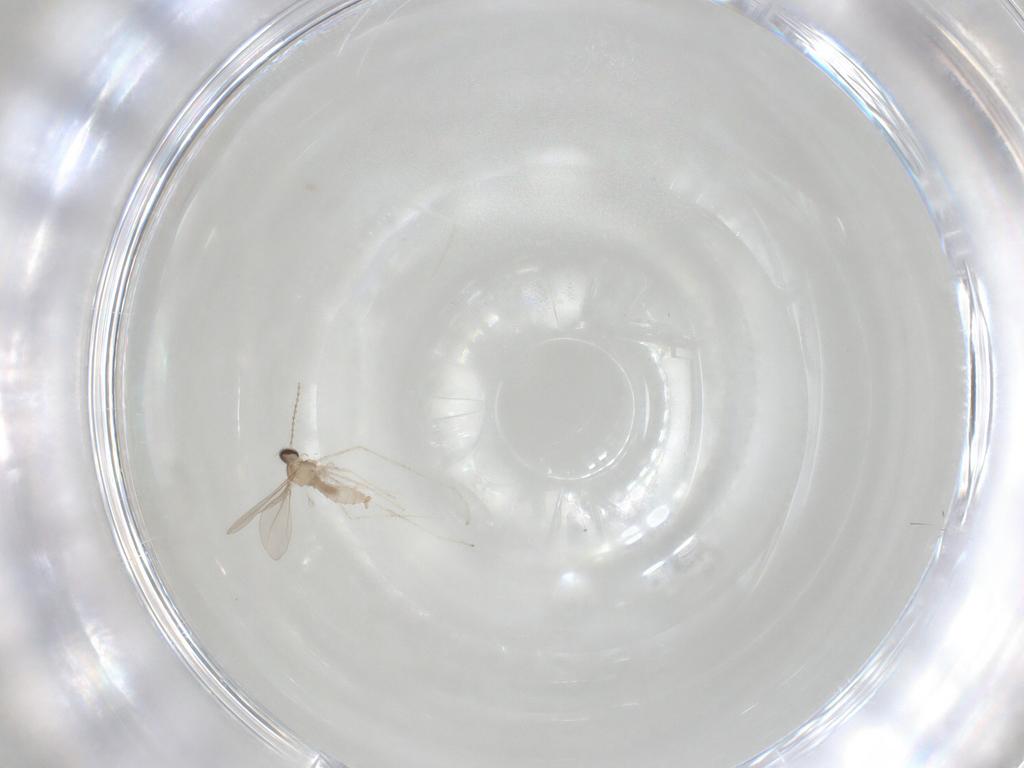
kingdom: Animalia
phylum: Arthropoda
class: Insecta
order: Diptera
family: Cecidomyiidae
